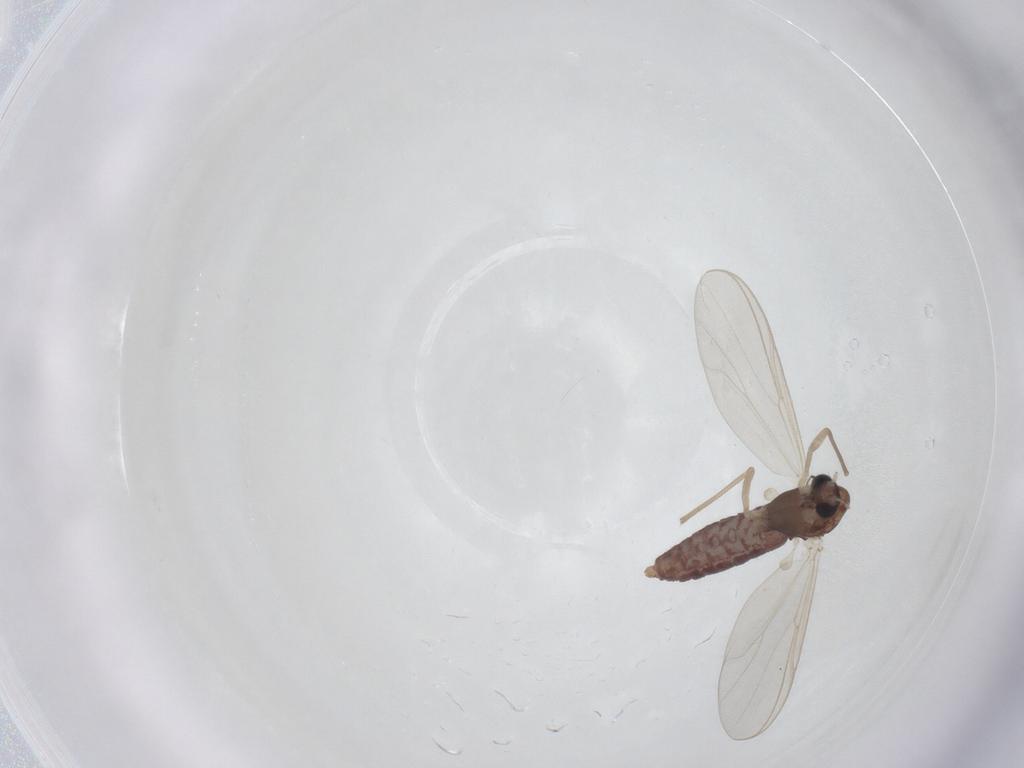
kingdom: Animalia
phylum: Arthropoda
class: Insecta
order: Diptera
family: Chironomidae
